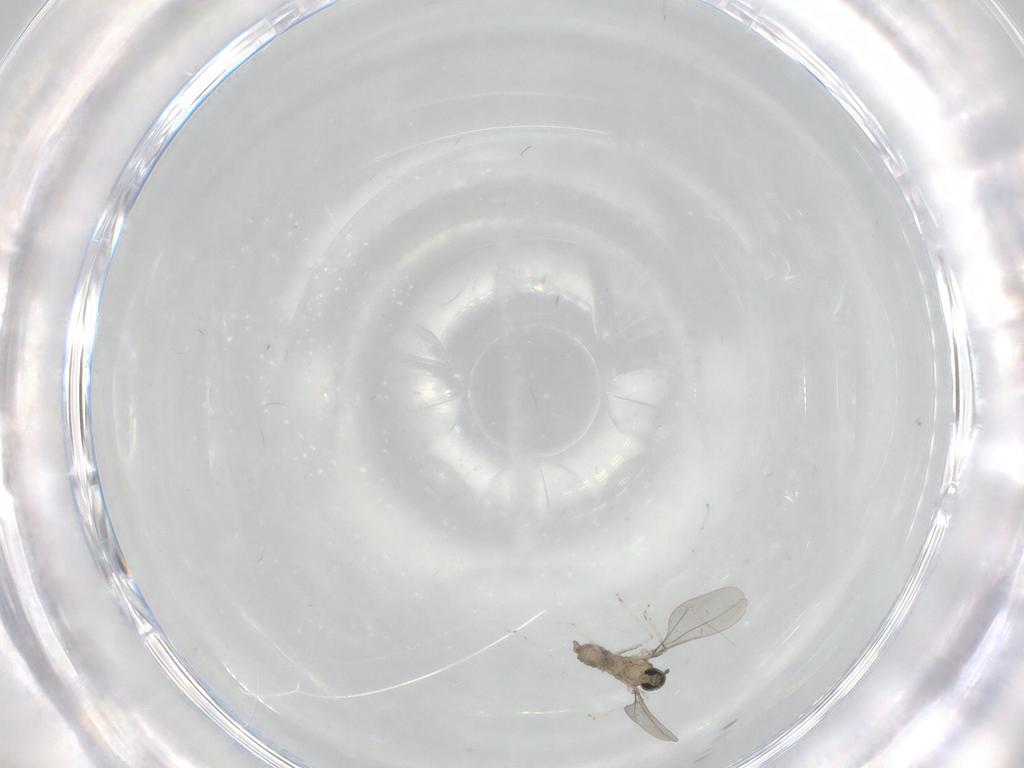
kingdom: Animalia
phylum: Arthropoda
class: Insecta
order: Diptera
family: Cecidomyiidae
